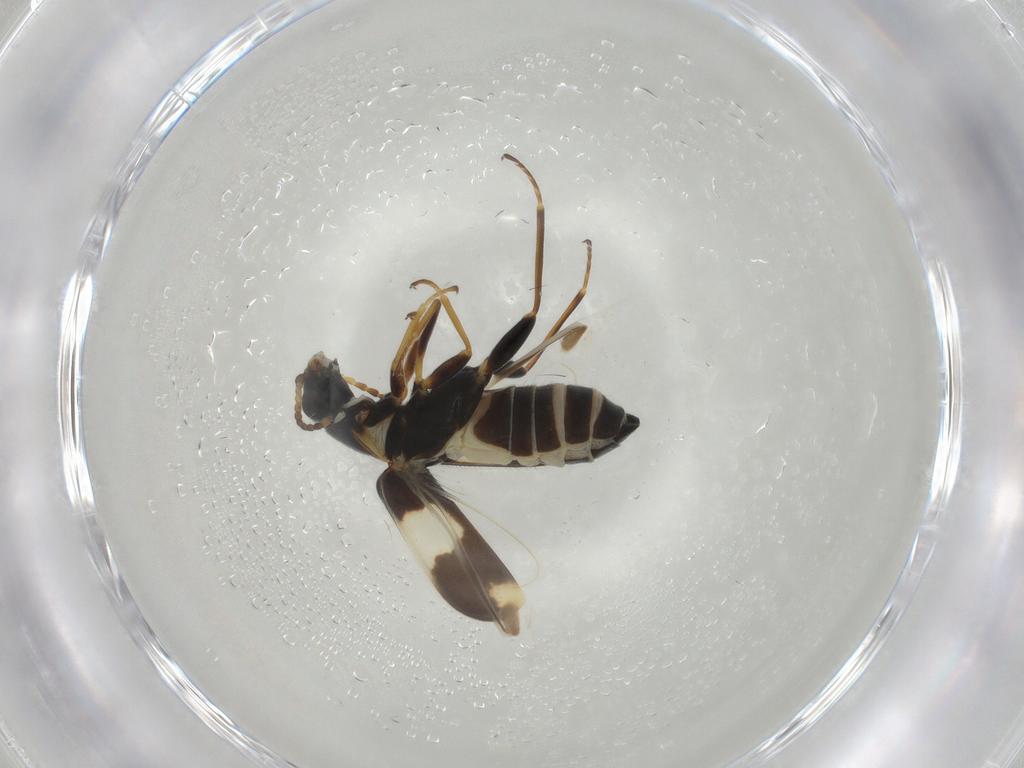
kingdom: Animalia
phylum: Arthropoda
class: Insecta
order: Coleoptera
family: Melyridae
